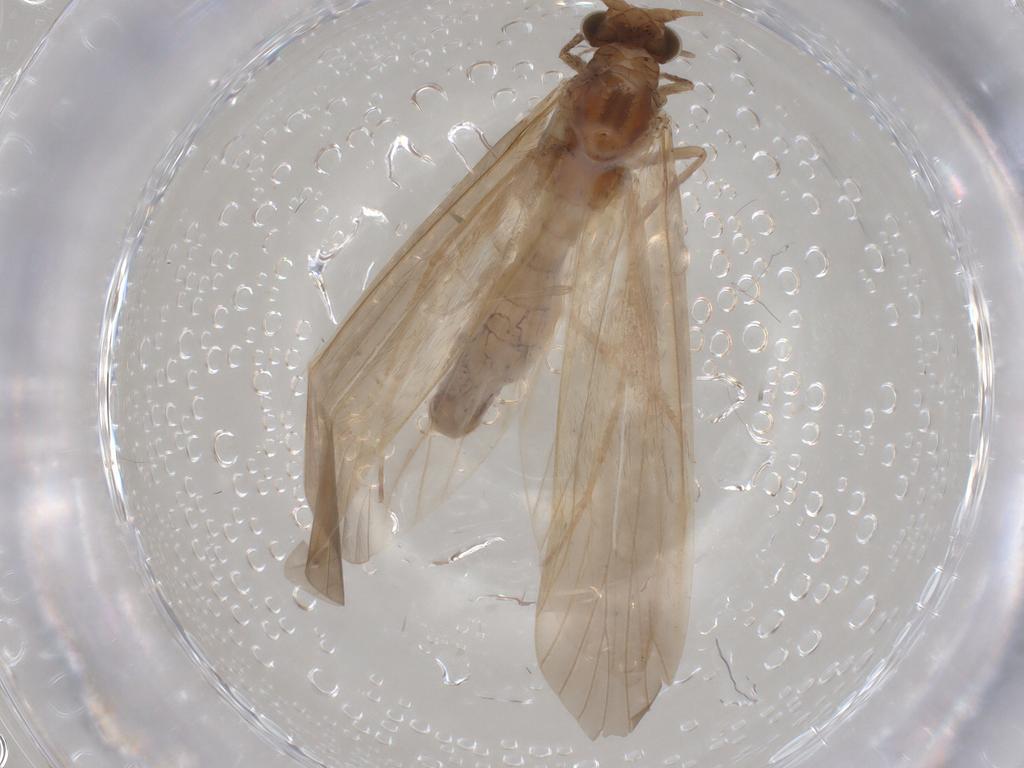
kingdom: Animalia
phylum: Arthropoda
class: Insecta
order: Trichoptera
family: Leptoceridae
